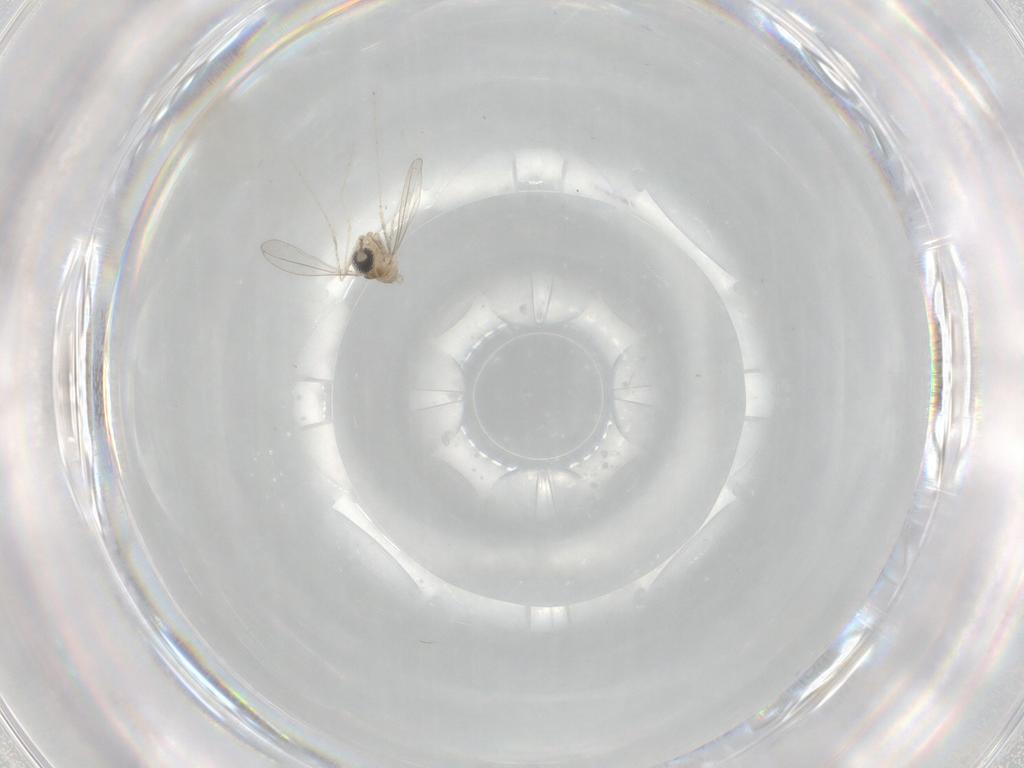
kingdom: Animalia
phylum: Arthropoda
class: Insecta
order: Diptera
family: Cecidomyiidae
